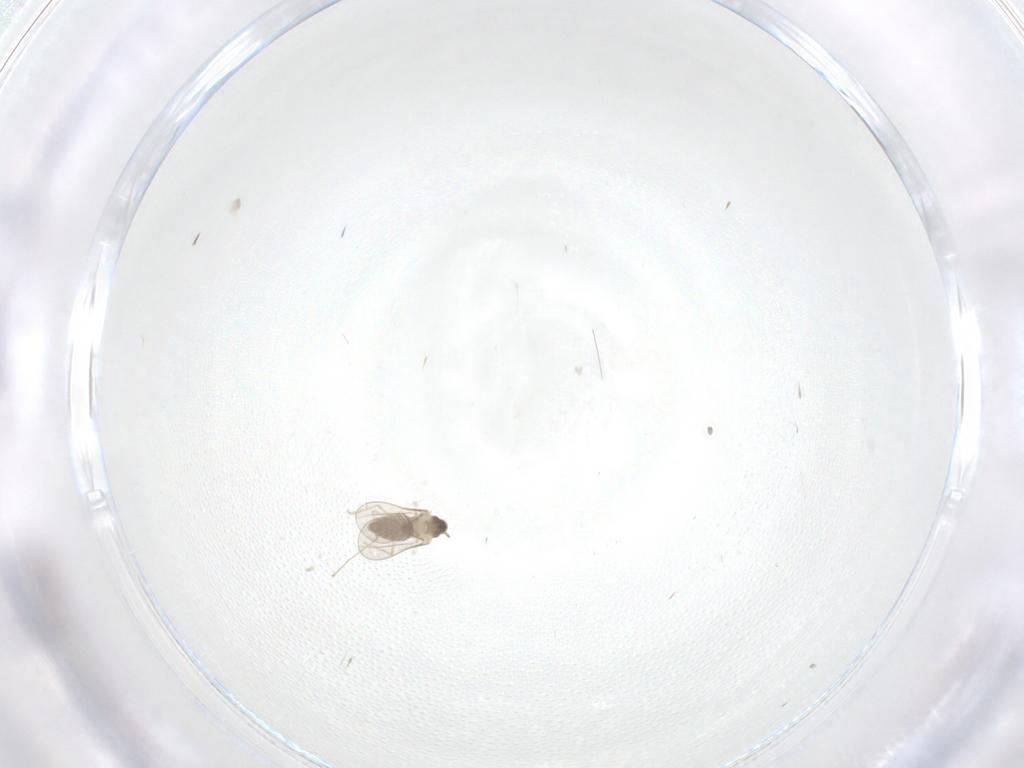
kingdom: Animalia
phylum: Arthropoda
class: Insecta
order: Diptera
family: Cecidomyiidae
